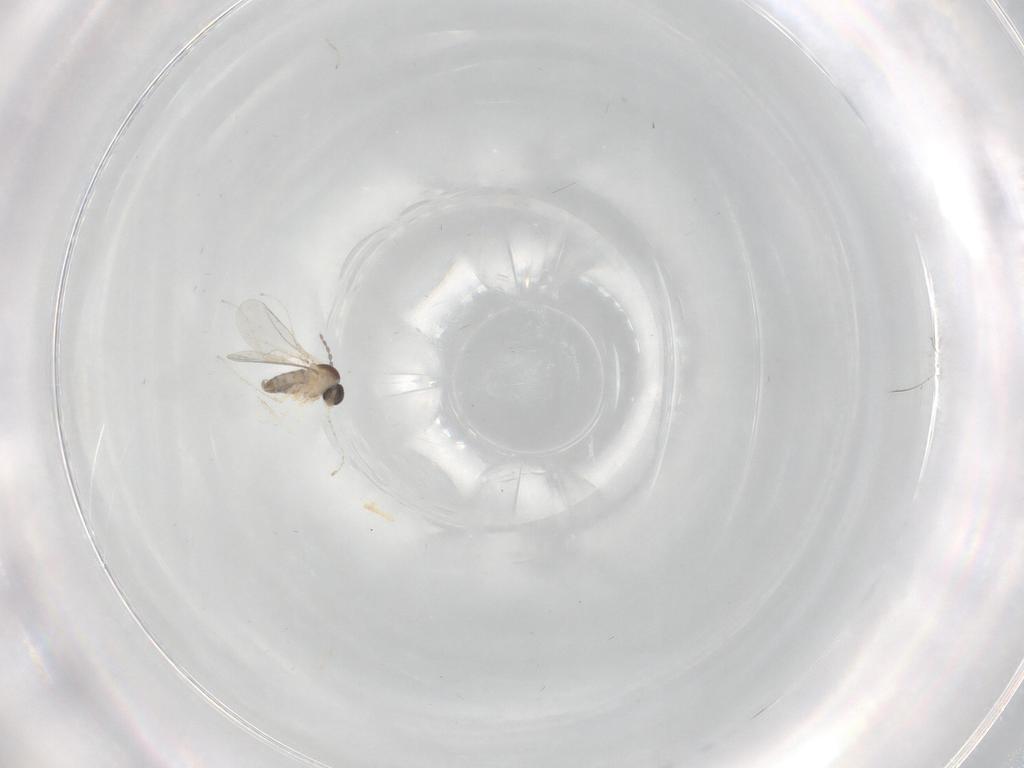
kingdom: Animalia
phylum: Arthropoda
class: Insecta
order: Diptera
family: Cecidomyiidae
